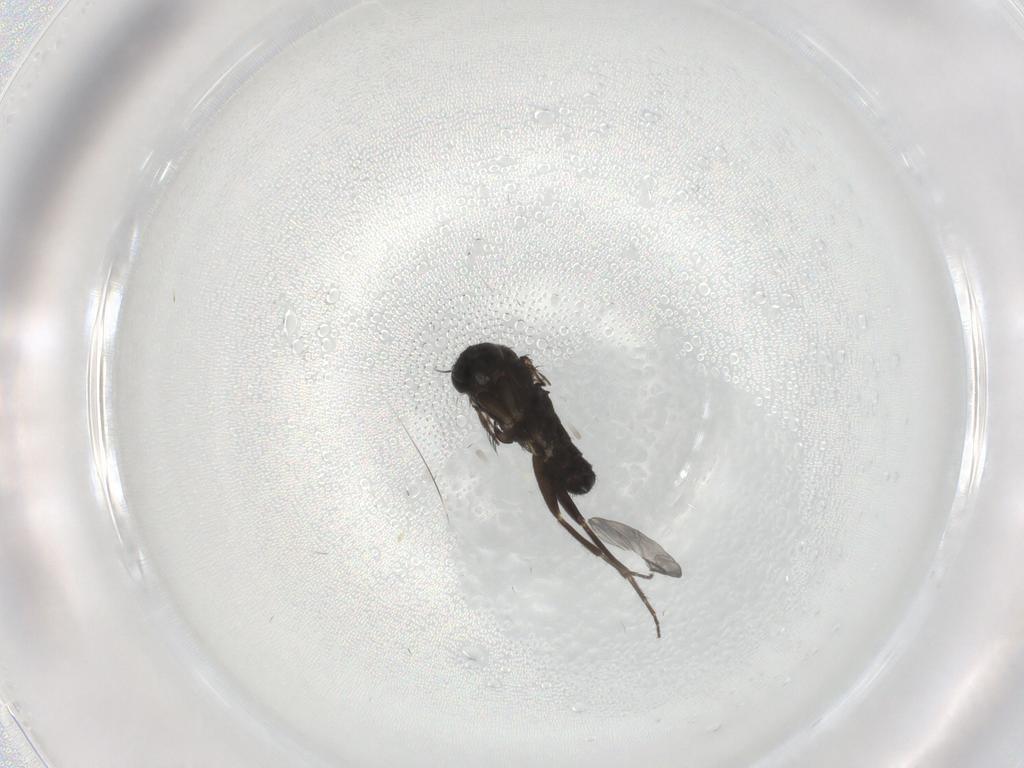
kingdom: Animalia
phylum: Arthropoda
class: Insecta
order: Diptera
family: Phoridae
